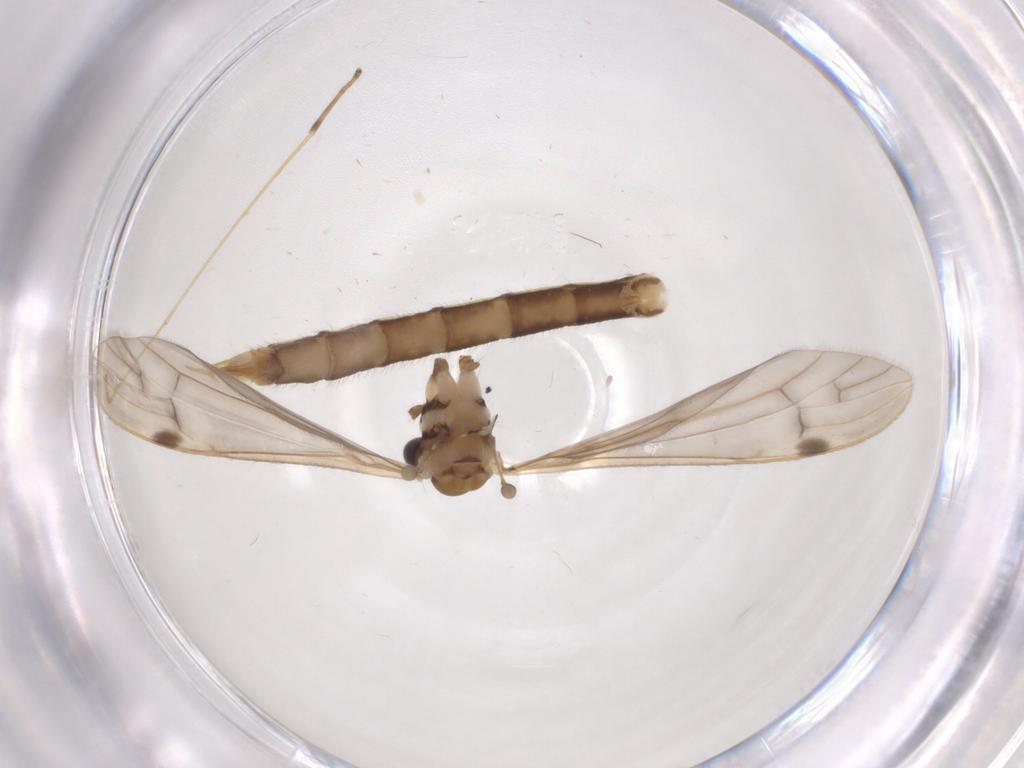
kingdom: Animalia
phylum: Arthropoda
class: Insecta
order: Diptera
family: Limoniidae
